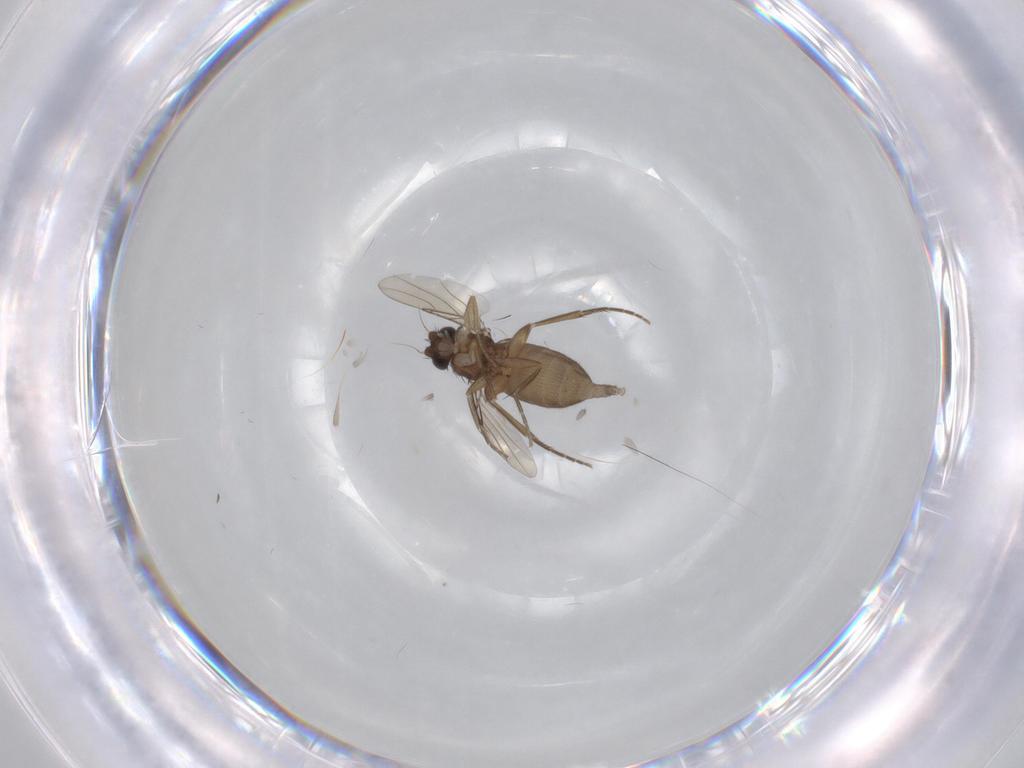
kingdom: Animalia
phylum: Arthropoda
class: Insecta
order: Diptera
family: Phoridae
